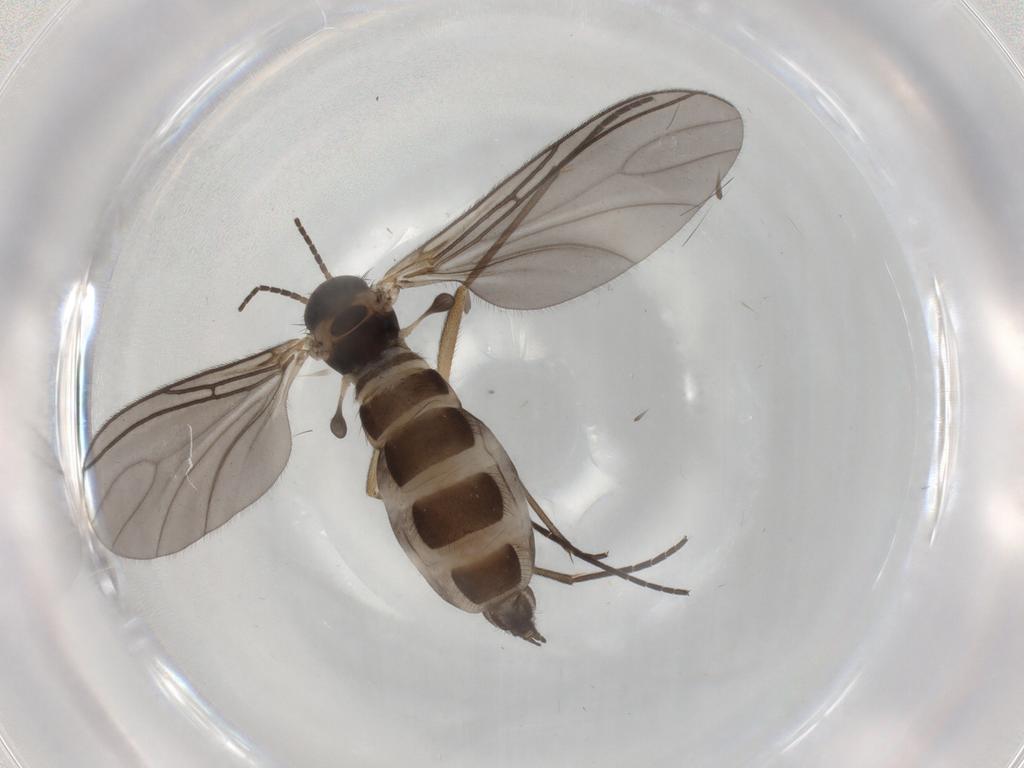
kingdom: Animalia
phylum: Arthropoda
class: Insecta
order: Diptera
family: Sciaridae
